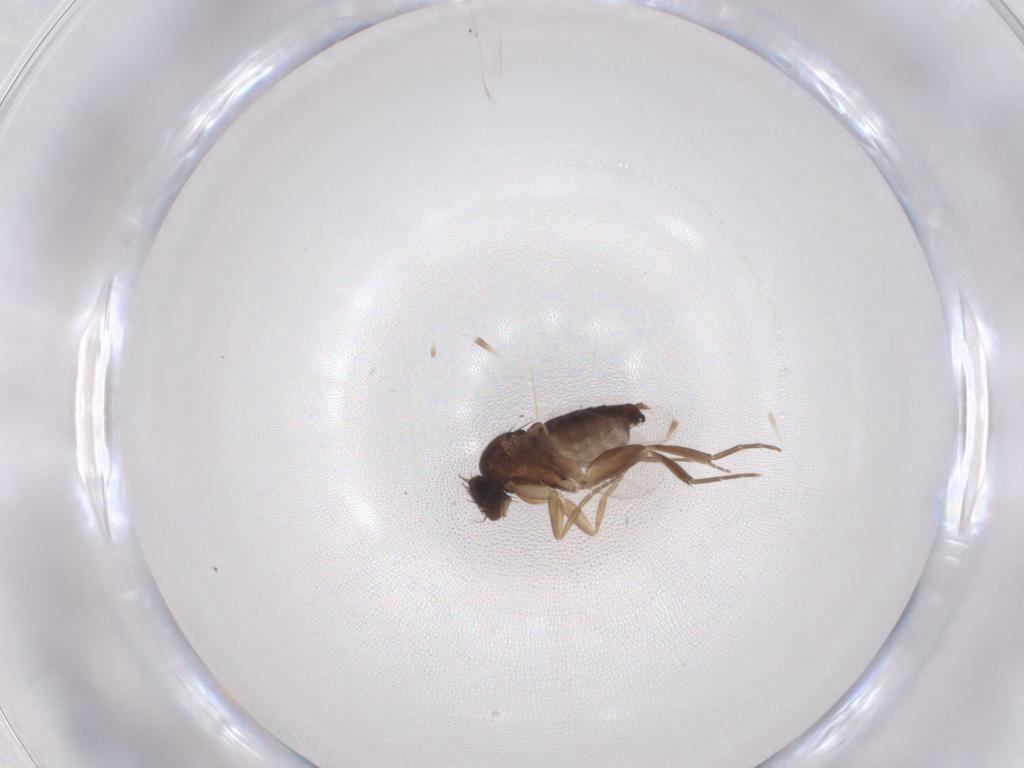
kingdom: Animalia
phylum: Arthropoda
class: Insecta
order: Diptera
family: Phoridae
